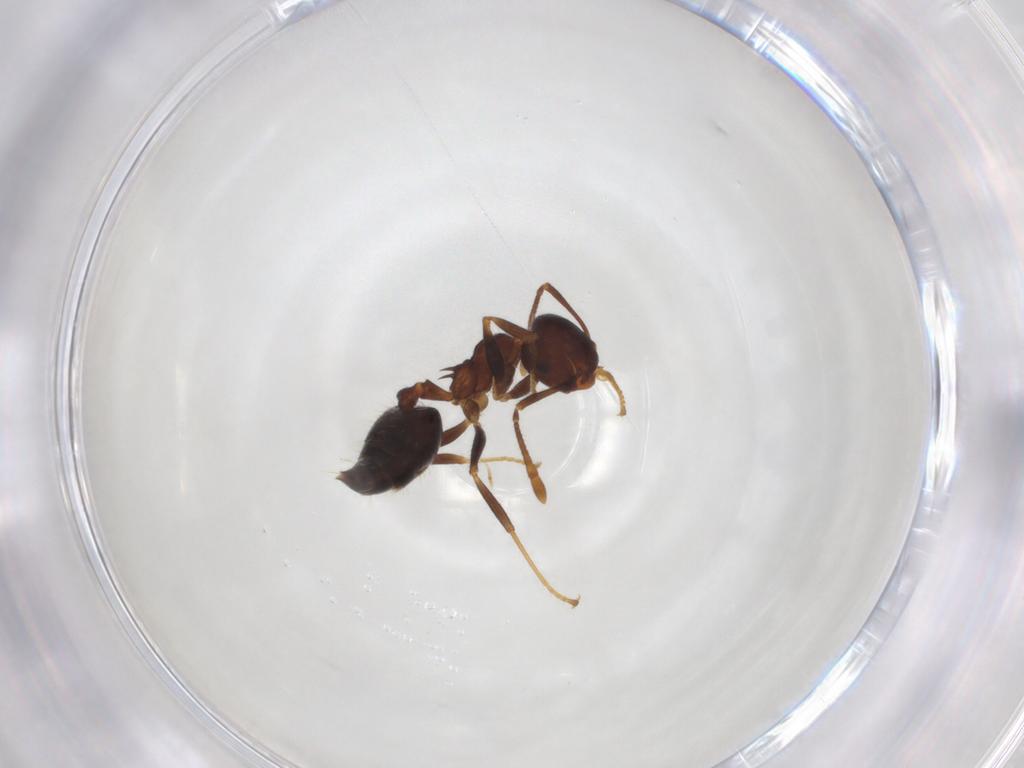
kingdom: Animalia
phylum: Arthropoda
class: Insecta
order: Hymenoptera
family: Formicidae
